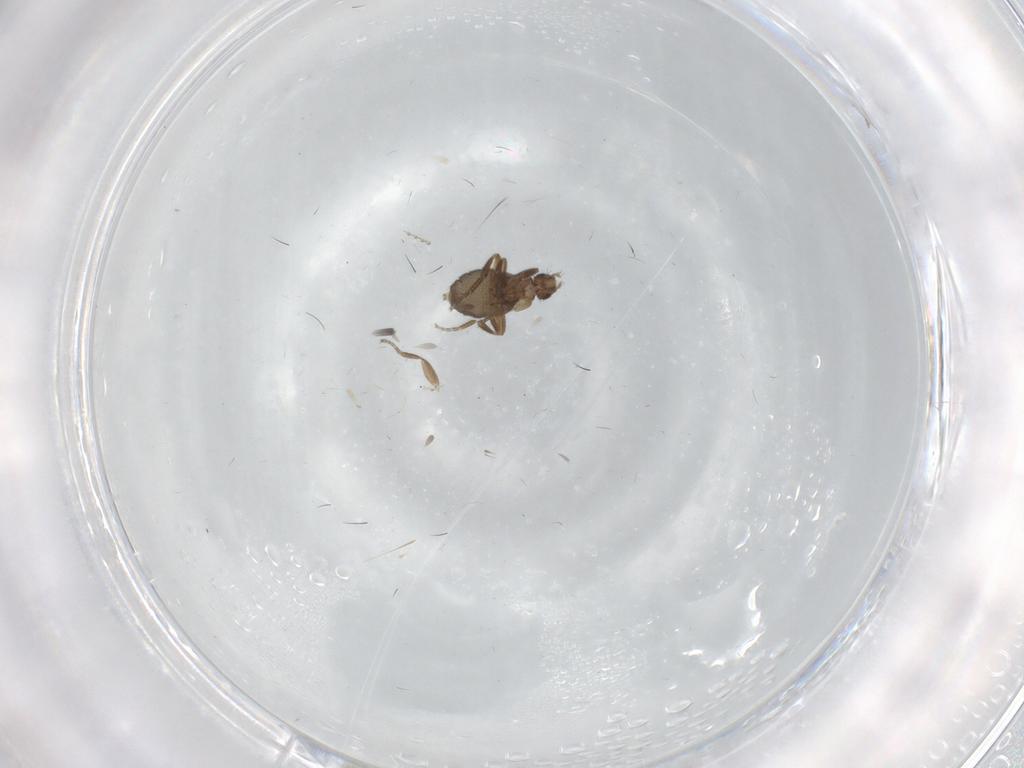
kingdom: Animalia
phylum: Arthropoda
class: Insecta
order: Diptera
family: Cecidomyiidae
